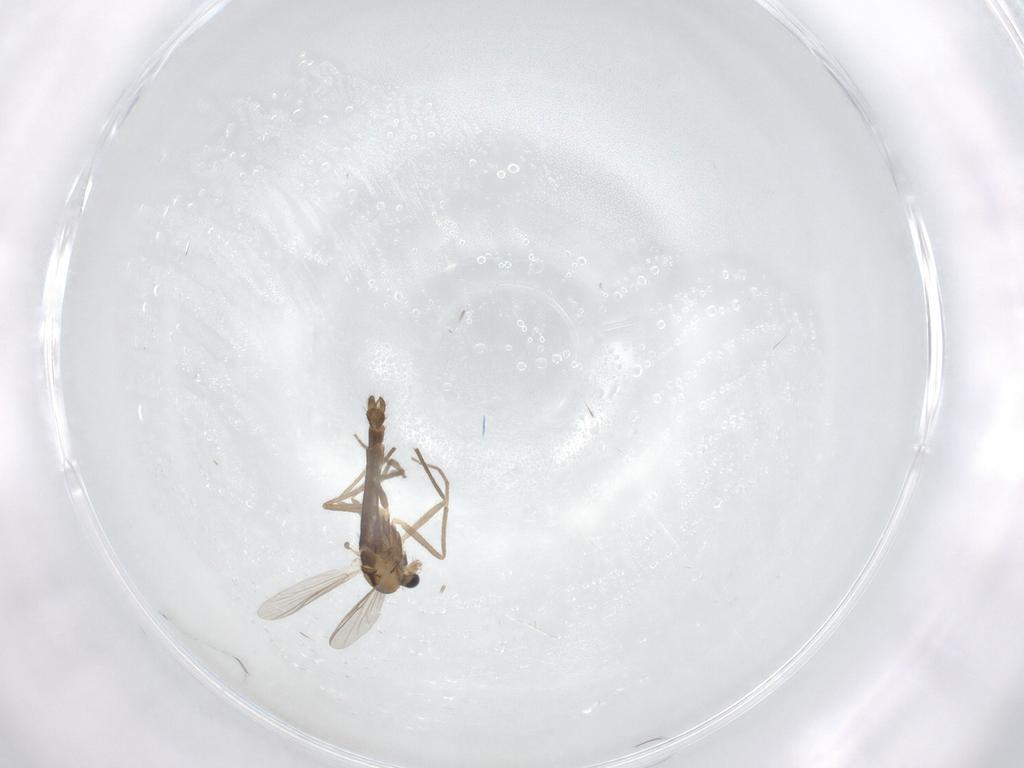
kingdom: Animalia
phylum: Arthropoda
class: Insecta
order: Diptera
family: Chironomidae
